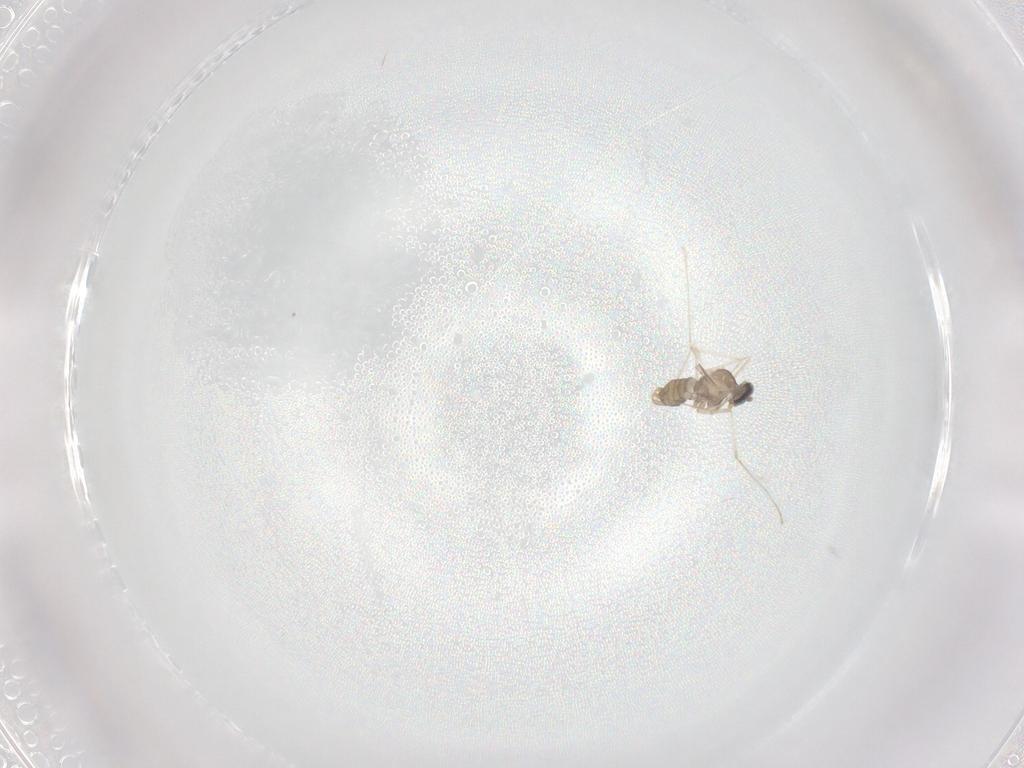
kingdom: Animalia
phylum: Arthropoda
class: Insecta
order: Diptera
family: Cecidomyiidae
